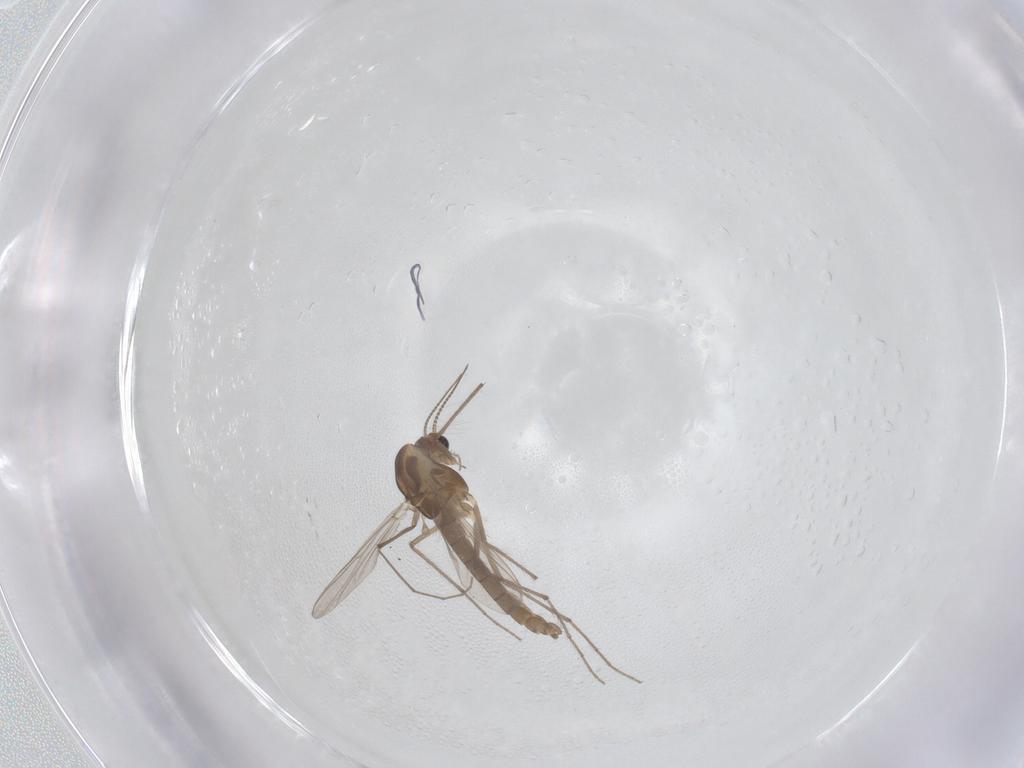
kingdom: Animalia
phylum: Arthropoda
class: Insecta
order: Diptera
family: Chironomidae
